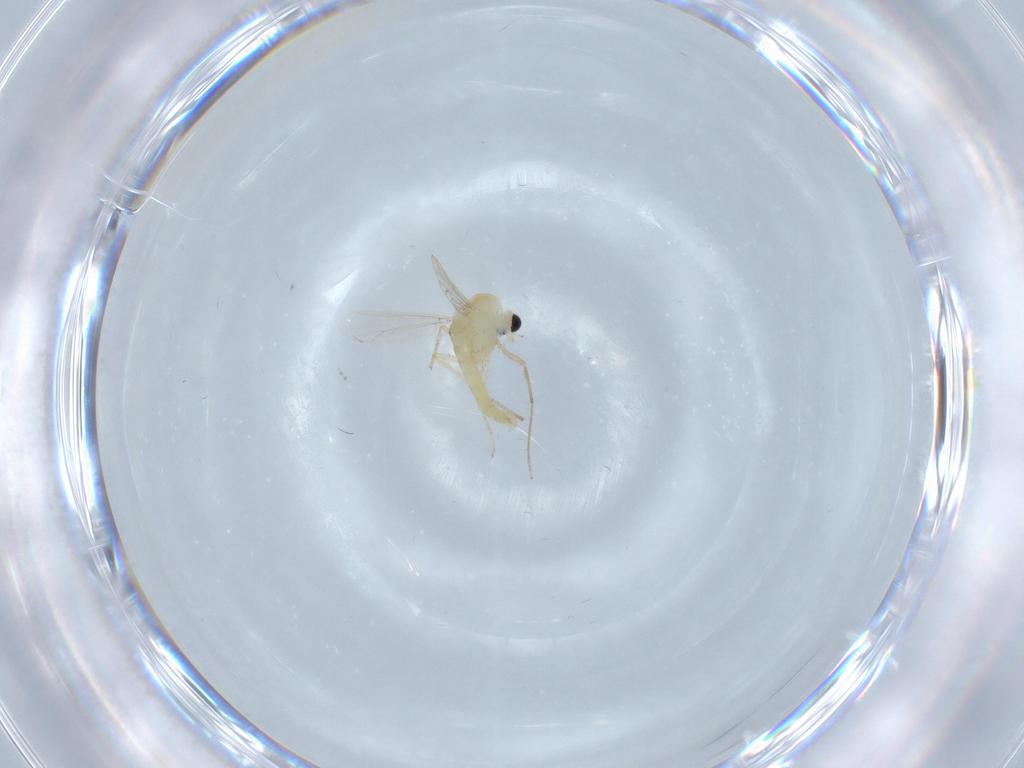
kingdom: Animalia
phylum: Arthropoda
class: Insecta
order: Diptera
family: Chironomidae
